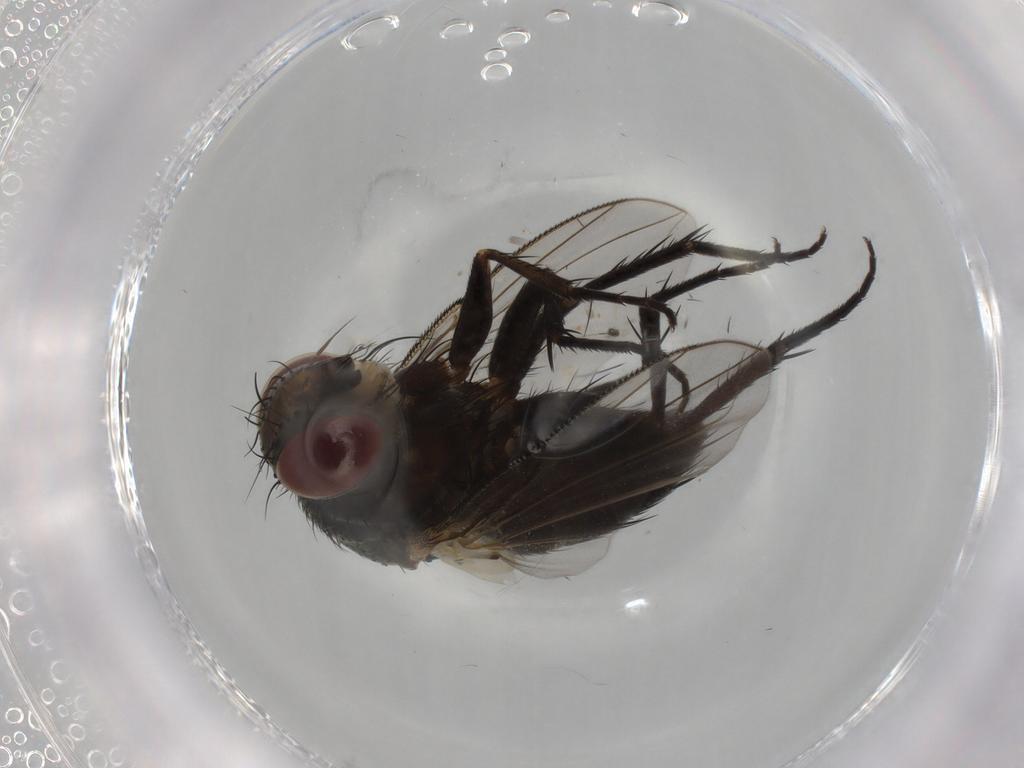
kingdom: Animalia
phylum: Arthropoda
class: Insecta
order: Diptera
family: Tachinidae
